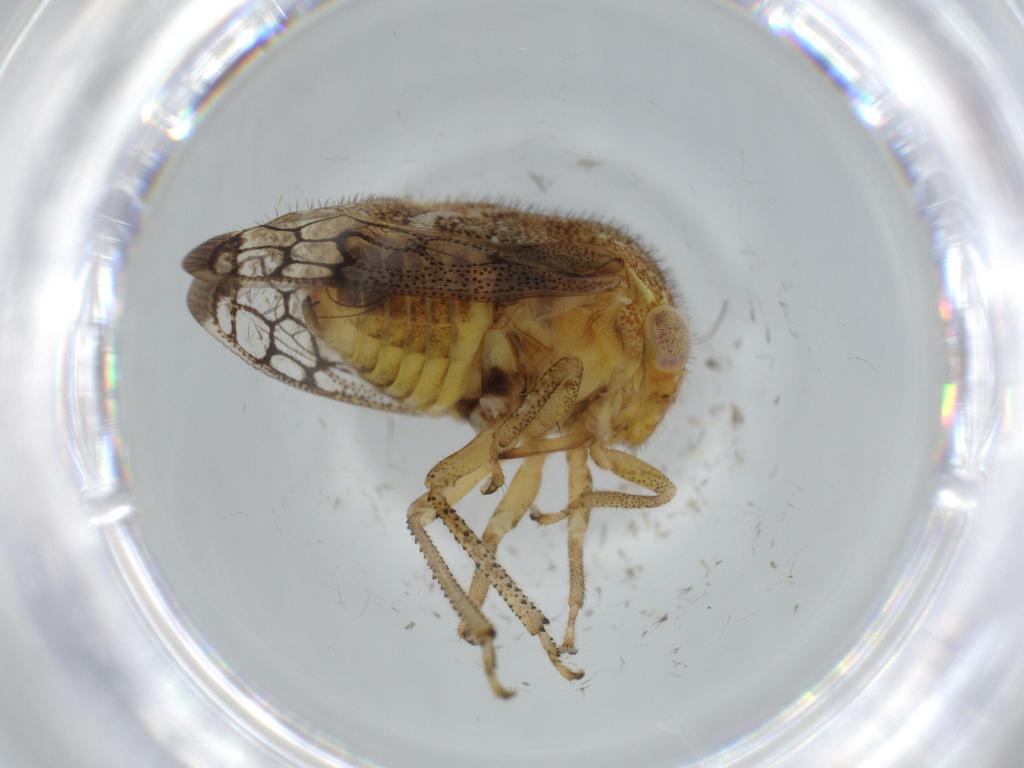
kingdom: Animalia
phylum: Arthropoda
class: Insecta
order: Hemiptera
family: Membracidae
